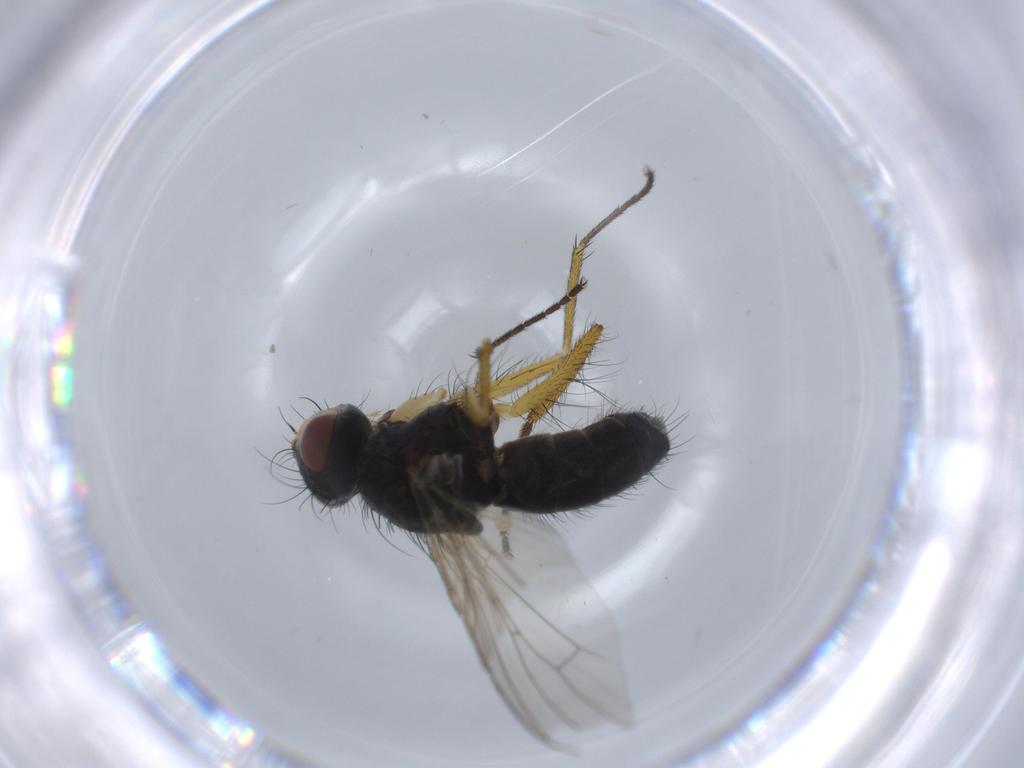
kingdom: Animalia
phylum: Arthropoda
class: Insecta
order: Diptera
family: Muscidae
